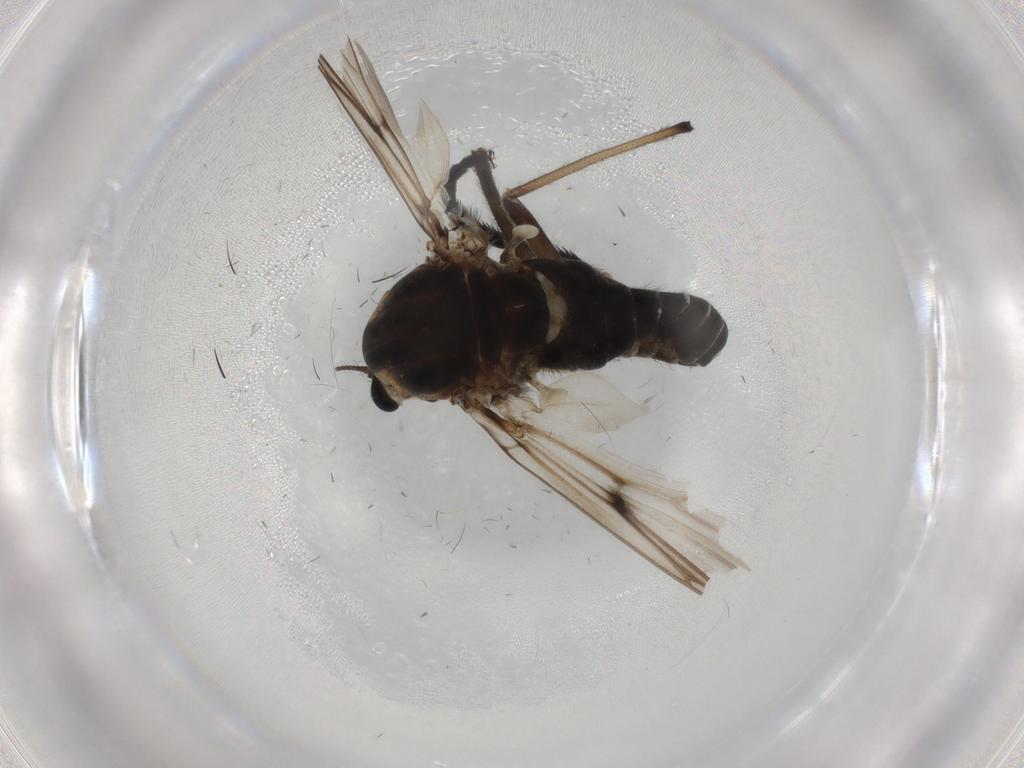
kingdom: Animalia
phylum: Arthropoda
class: Insecta
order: Diptera
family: Chironomidae
